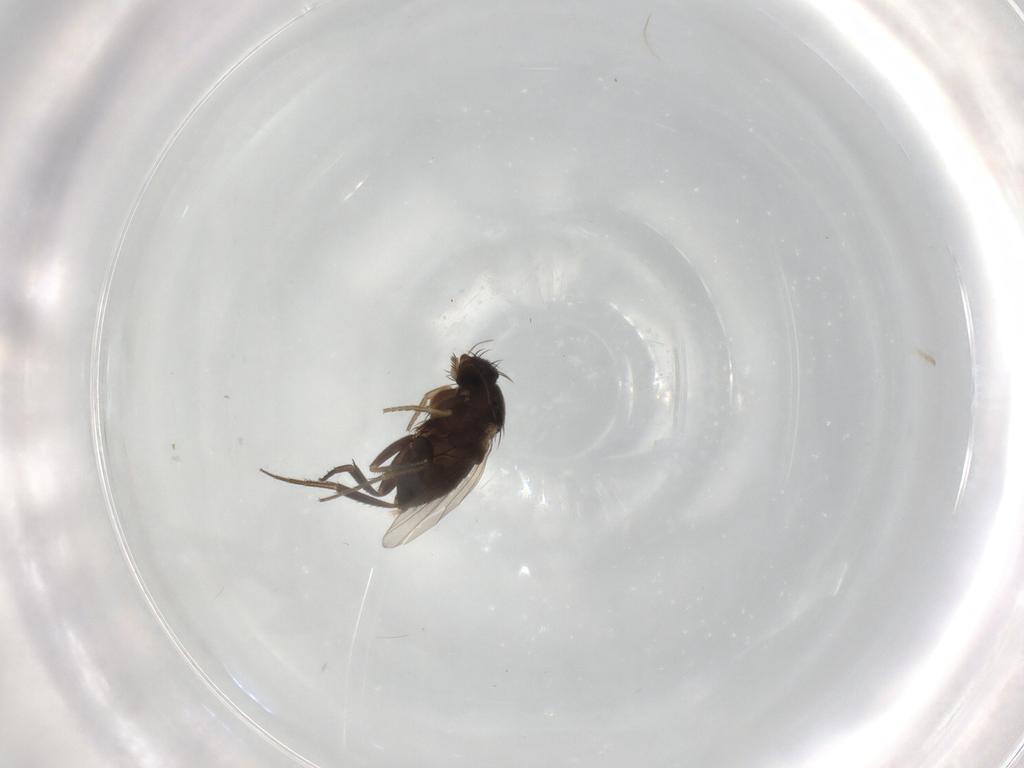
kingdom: Animalia
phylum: Arthropoda
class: Insecta
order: Diptera
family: Phoridae
